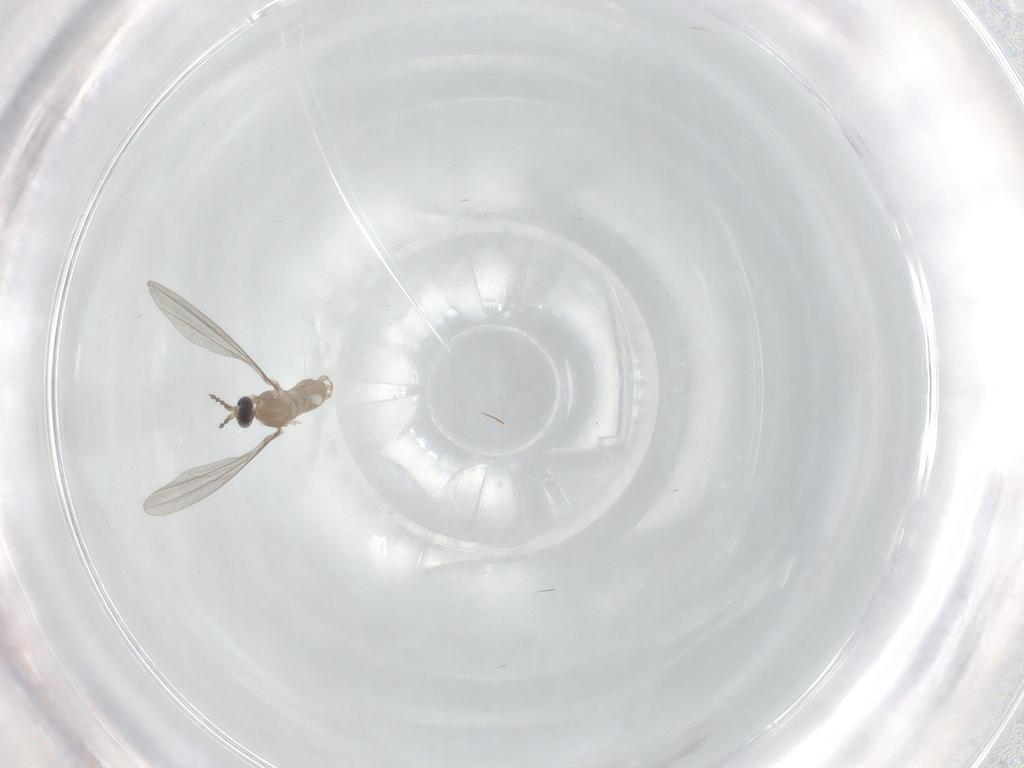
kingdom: Animalia
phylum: Arthropoda
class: Insecta
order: Diptera
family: Cecidomyiidae
